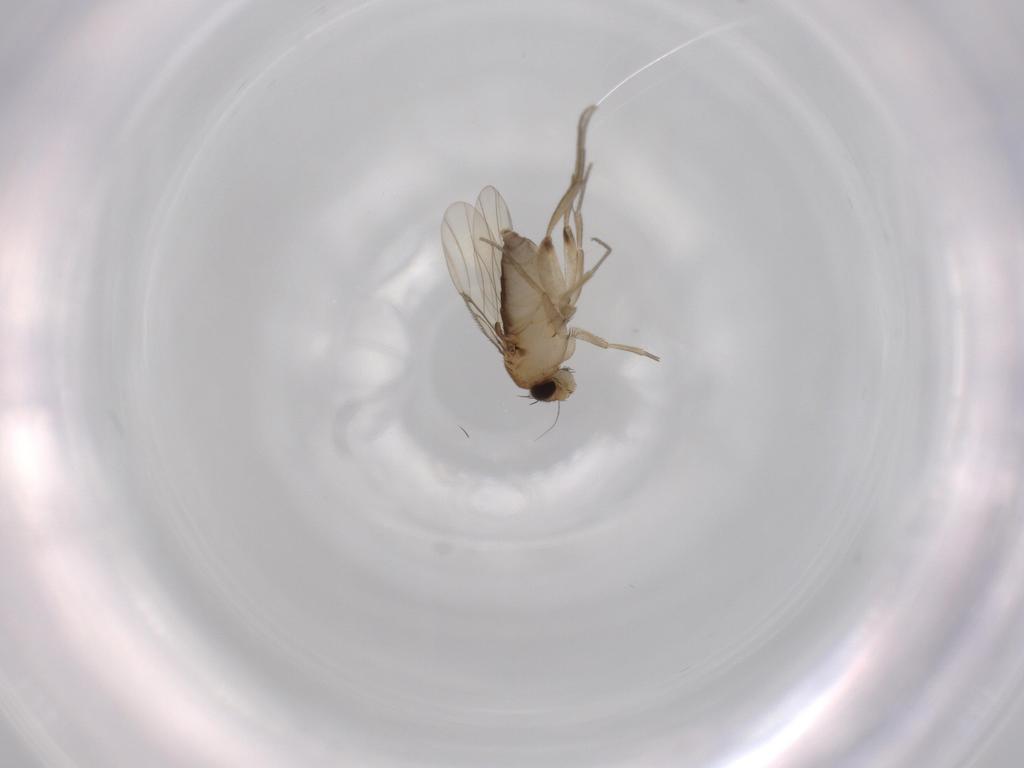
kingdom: Animalia
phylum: Arthropoda
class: Insecta
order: Diptera
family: Phoridae
